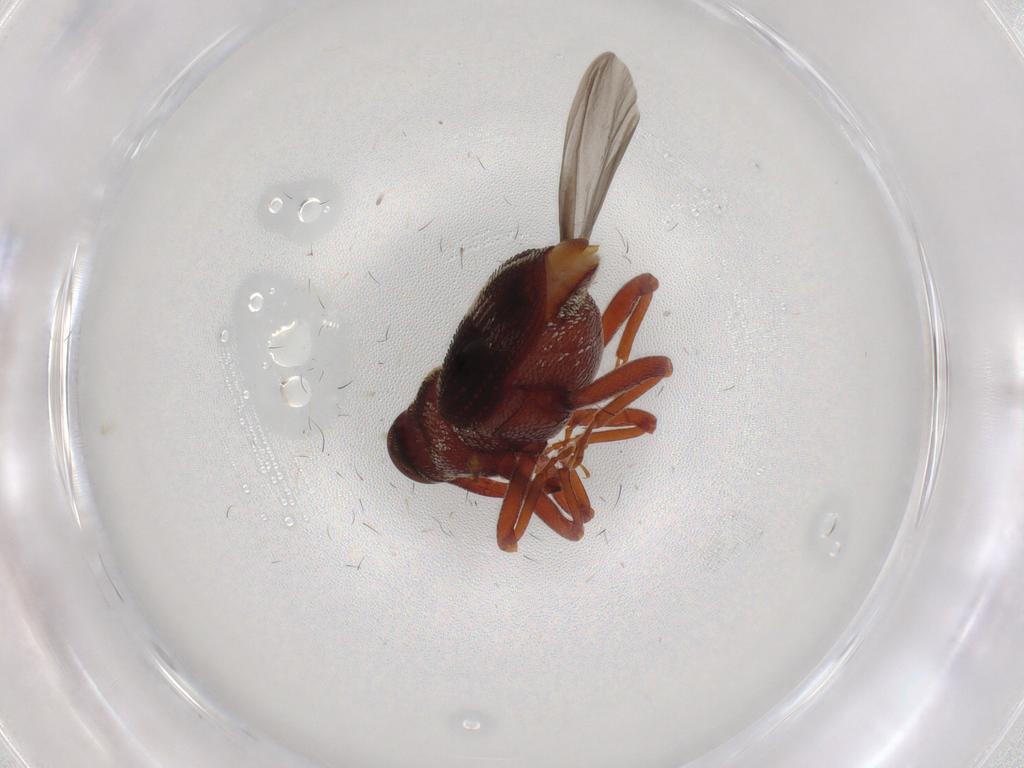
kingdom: Animalia
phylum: Arthropoda
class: Insecta
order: Coleoptera
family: Curculionidae
